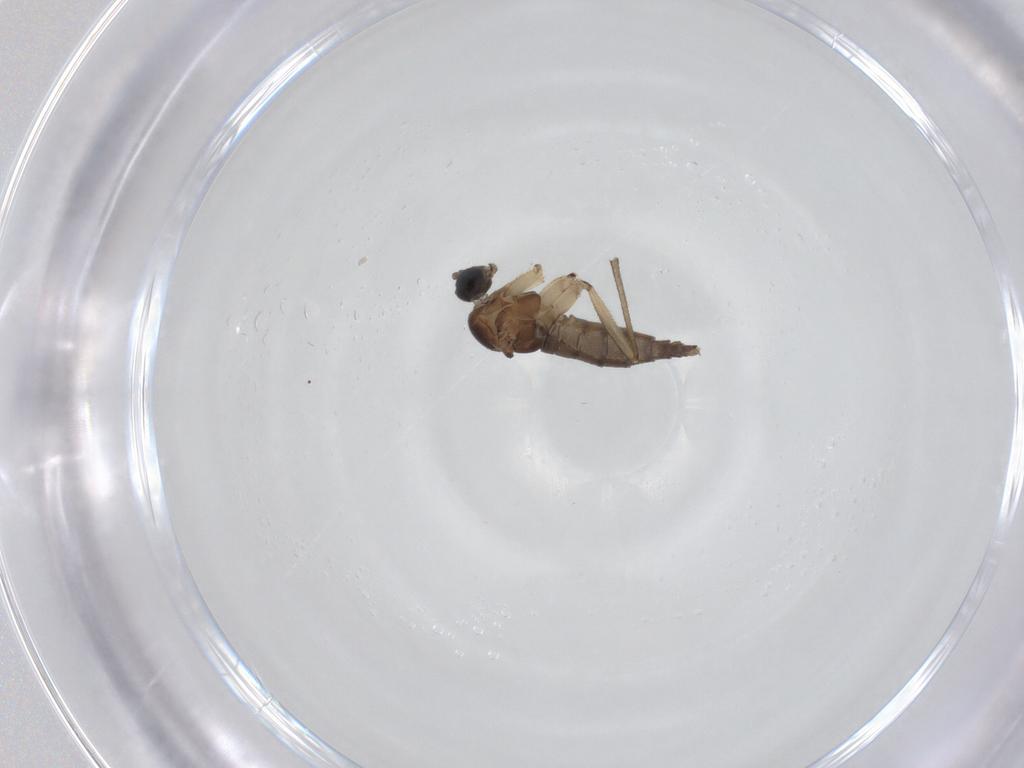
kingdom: Animalia
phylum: Arthropoda
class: Insecta
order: Diptera
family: Sciaridae
